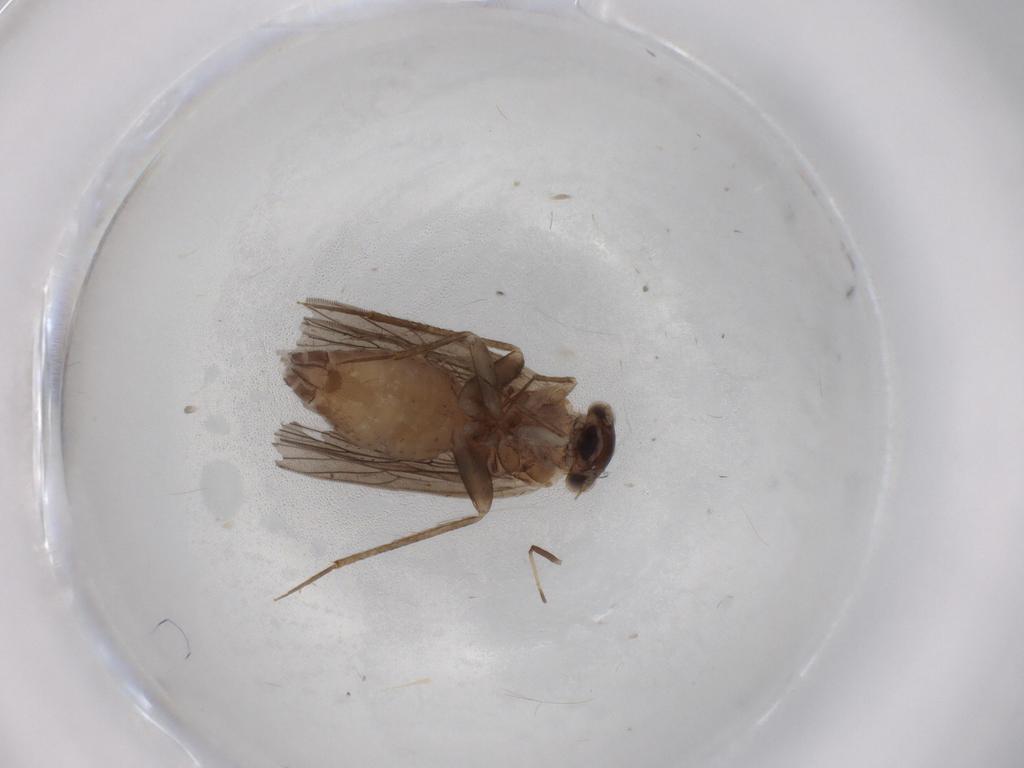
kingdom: Animalia
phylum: Arthropoda
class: Insecta
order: Psocodea
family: Lepidopsocidae
